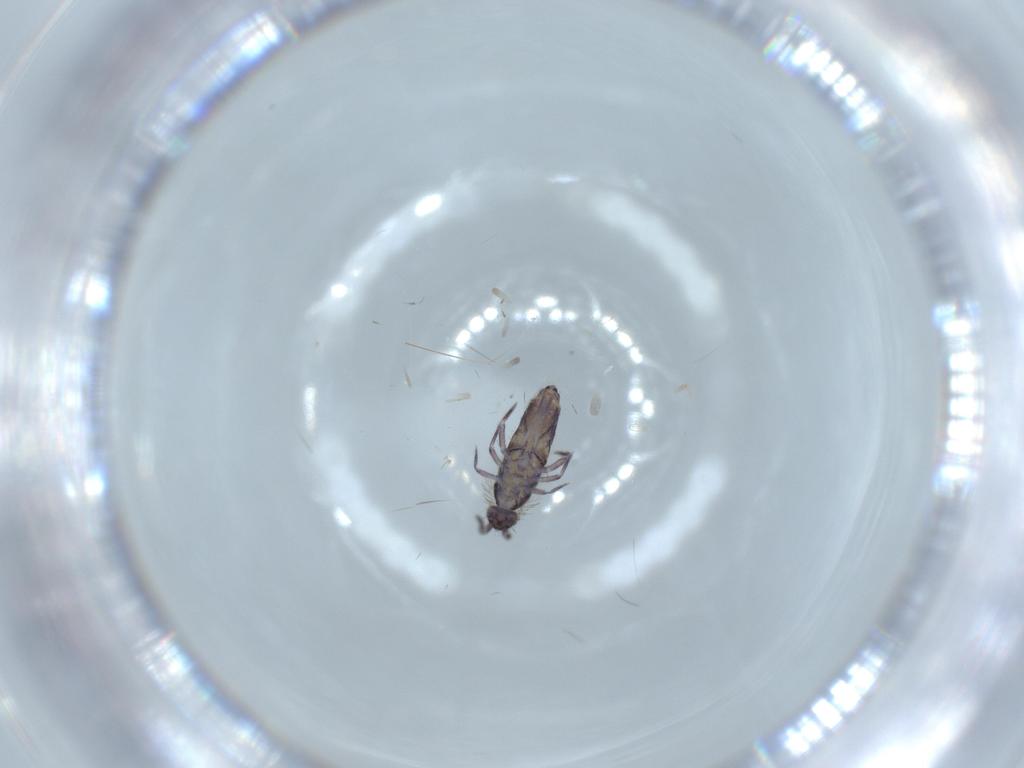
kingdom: Animalia
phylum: Arthropoda
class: Collembola
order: Entomobryomorpha
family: Entomobryidae
